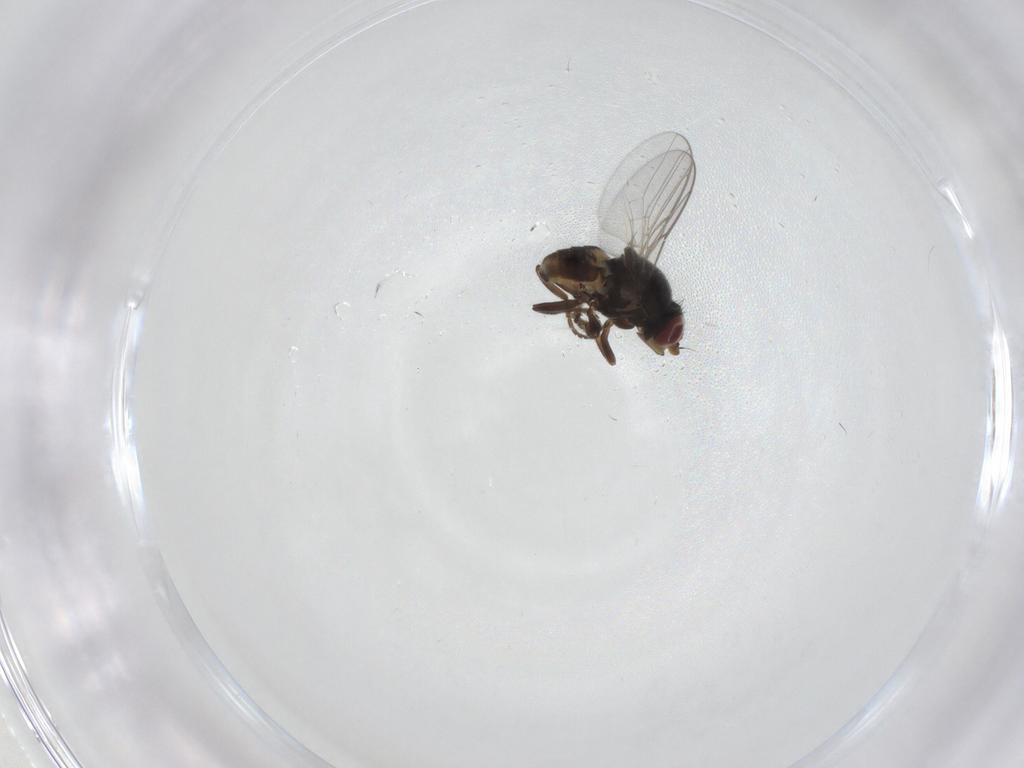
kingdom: Animalia
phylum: Arthropoda
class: Insecta
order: Diptera
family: Chloropidae
